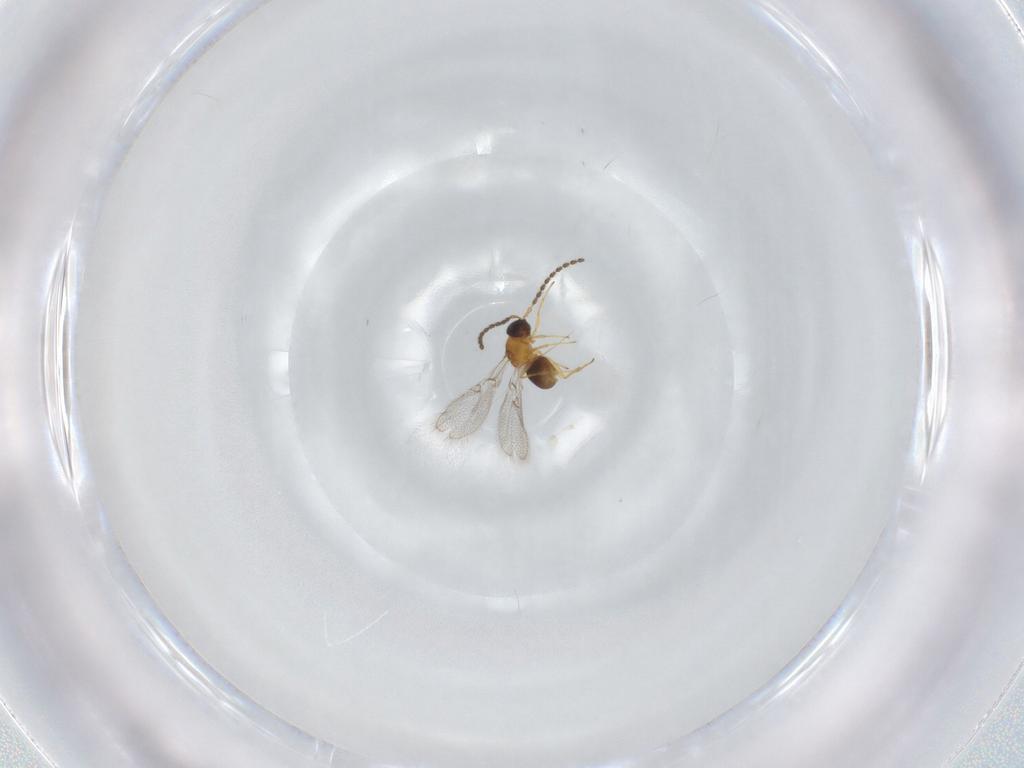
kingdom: Animalia
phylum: Arthropoda
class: Insecta
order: Hymenoptera
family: Figitidae
